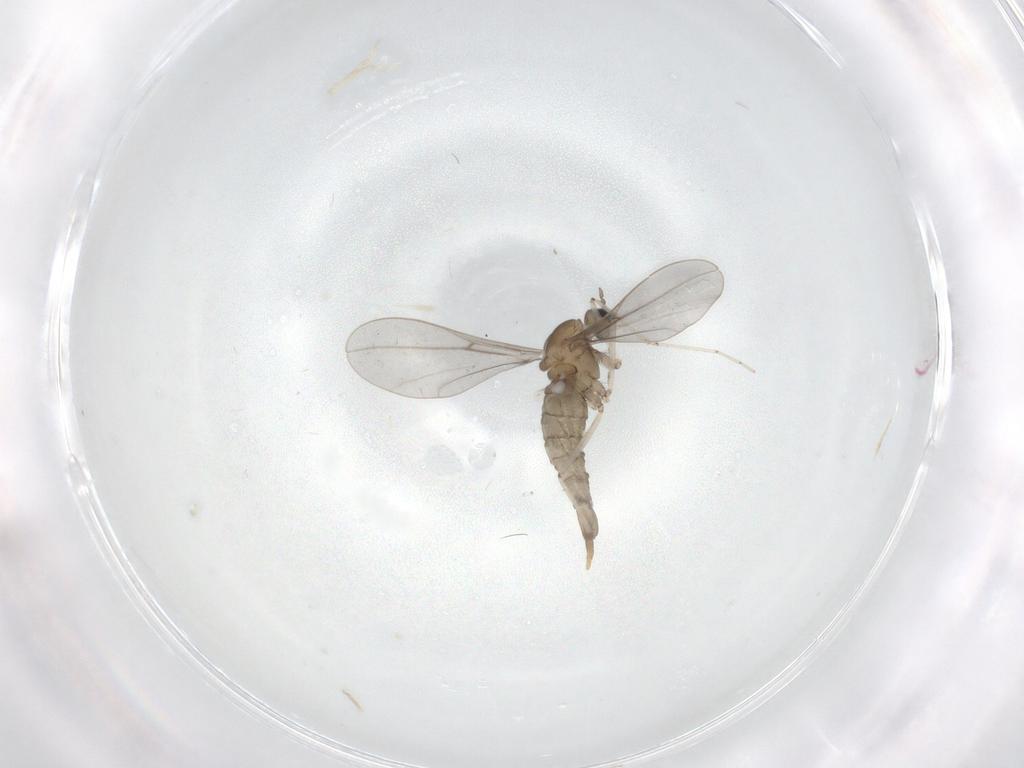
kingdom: Animalia
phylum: Arthropoda
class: Insecta
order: Diptera
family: Cecidomyiidae
